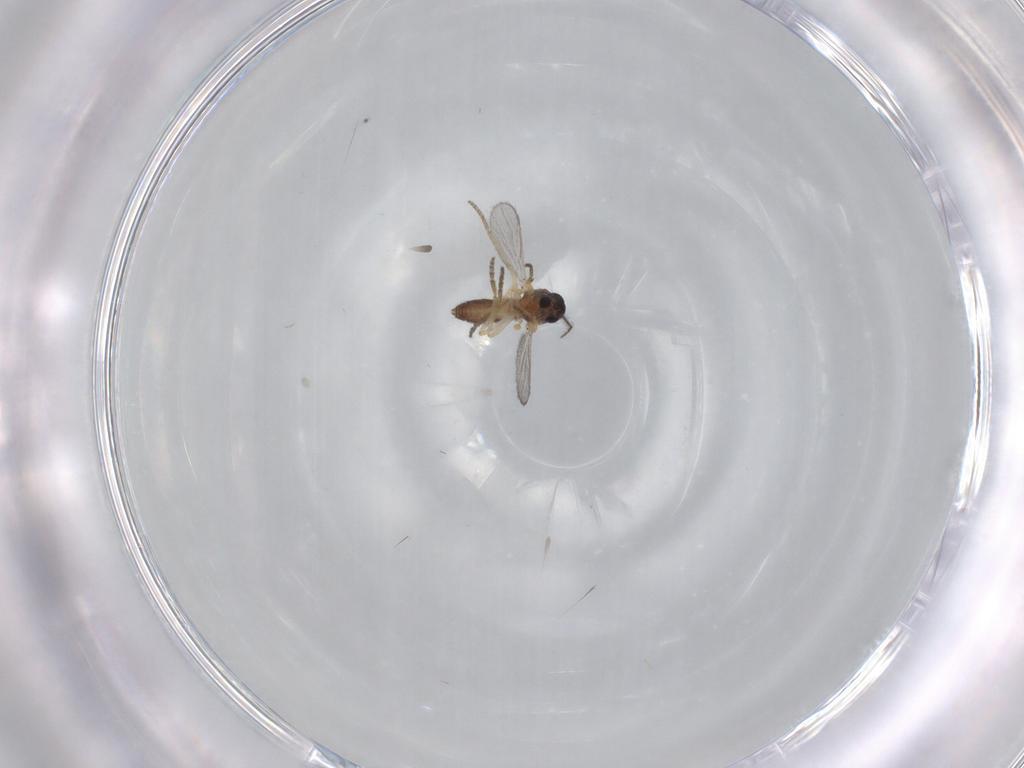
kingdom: Animalia
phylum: Arthropoda
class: Insecta
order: Diptera
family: Ceratopogonidae
